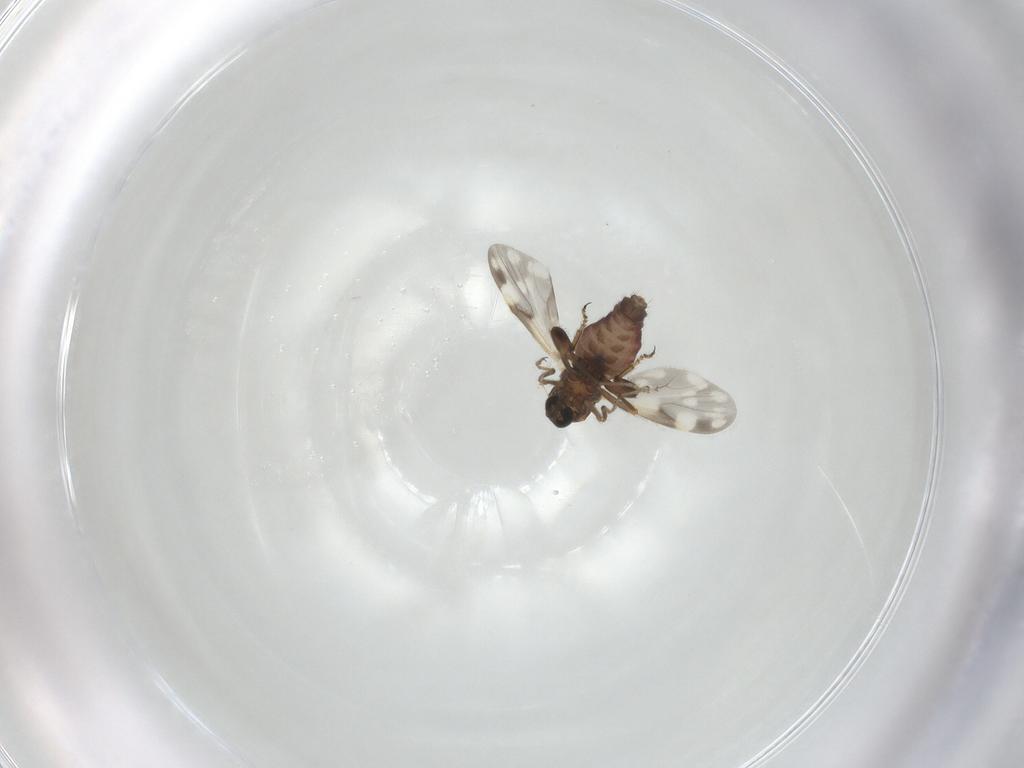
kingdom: Animalia
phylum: Arthropoda
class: Insecta
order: Diptera
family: Ceratopogonidae
